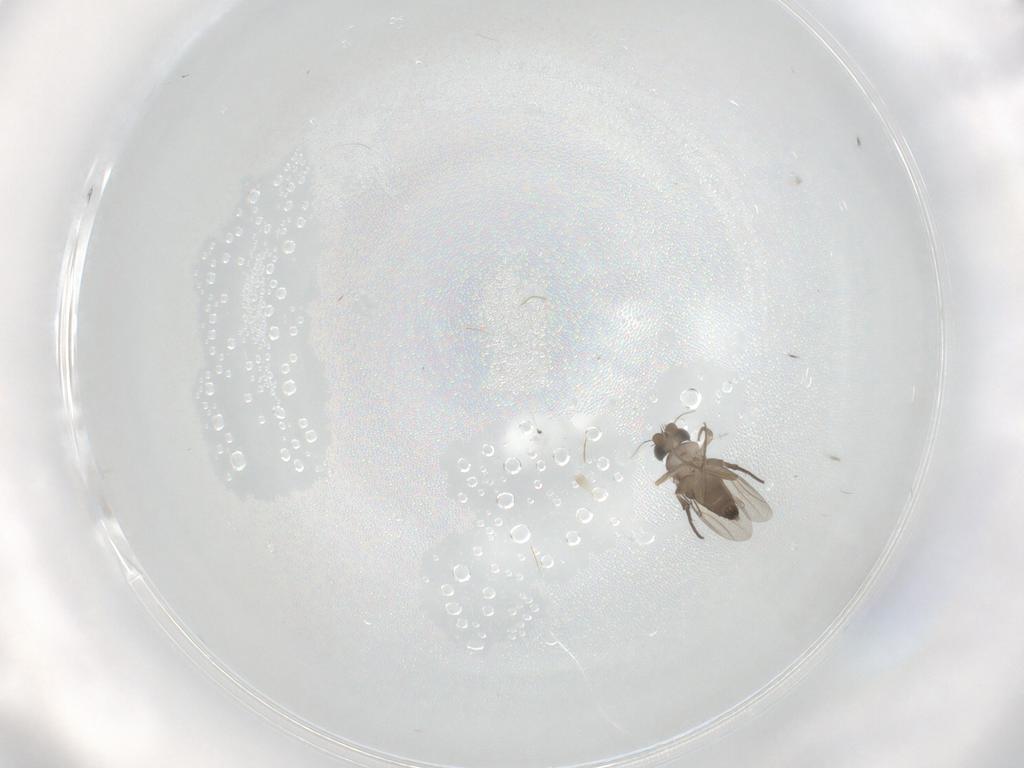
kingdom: Animalia
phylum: Arthropoda
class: Insecta
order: Diptera
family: Phoridae
